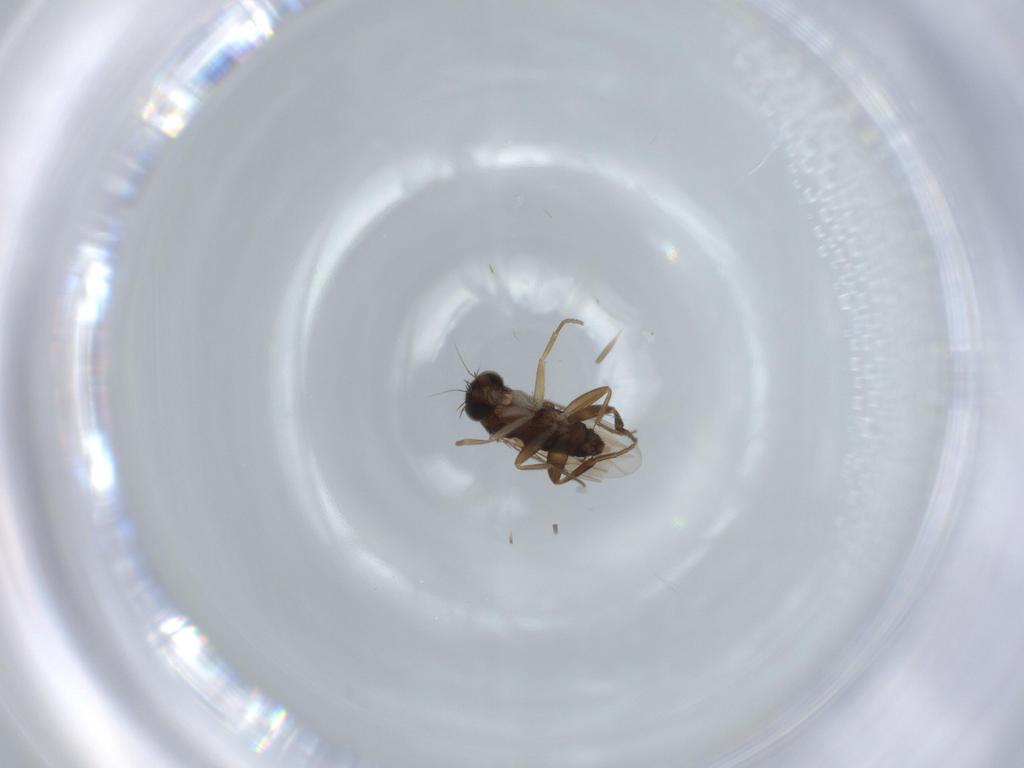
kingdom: Animalia
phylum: Arthropoda
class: Insecta
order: Diptera
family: Phoridae
